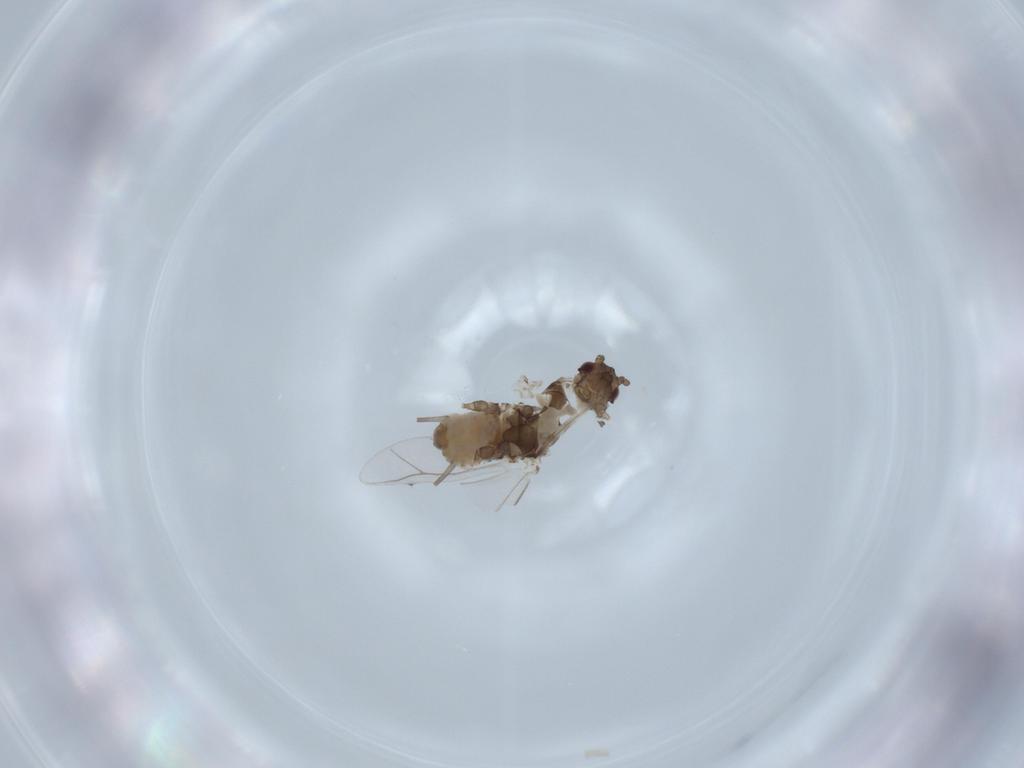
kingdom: Animalia
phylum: Arthropoda
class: Insecta
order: Hemiptera
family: Aphididae
